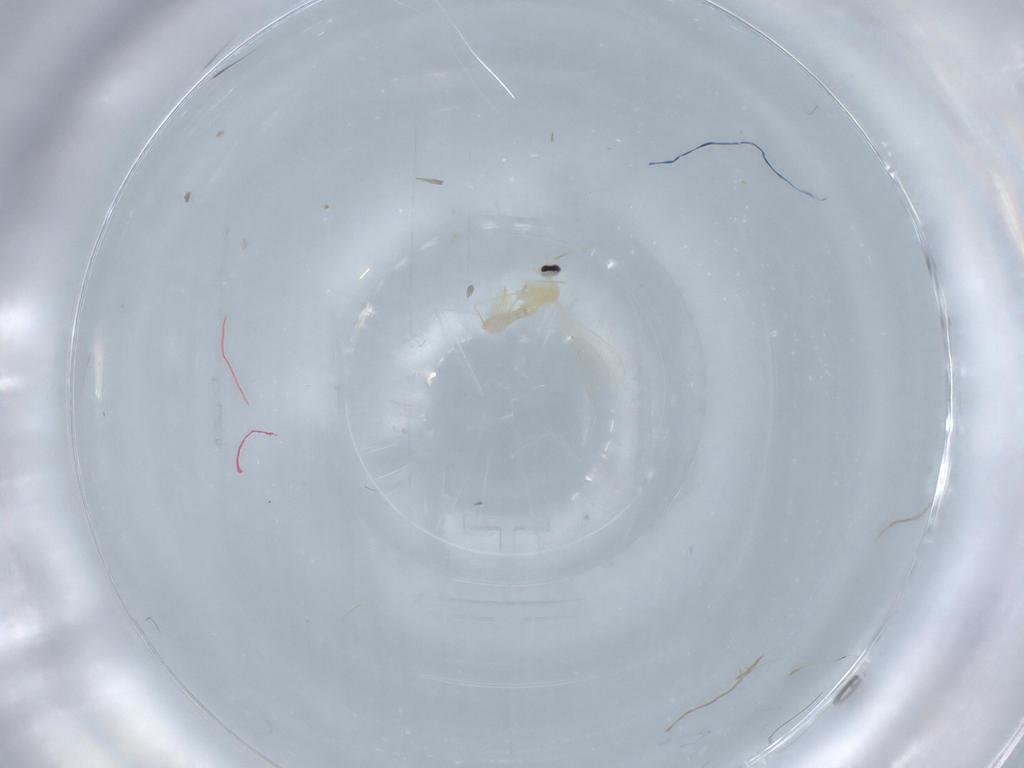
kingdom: Animalia
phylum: Arthropoda
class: Insecta
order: Diptera
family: Cecidomyiidae
